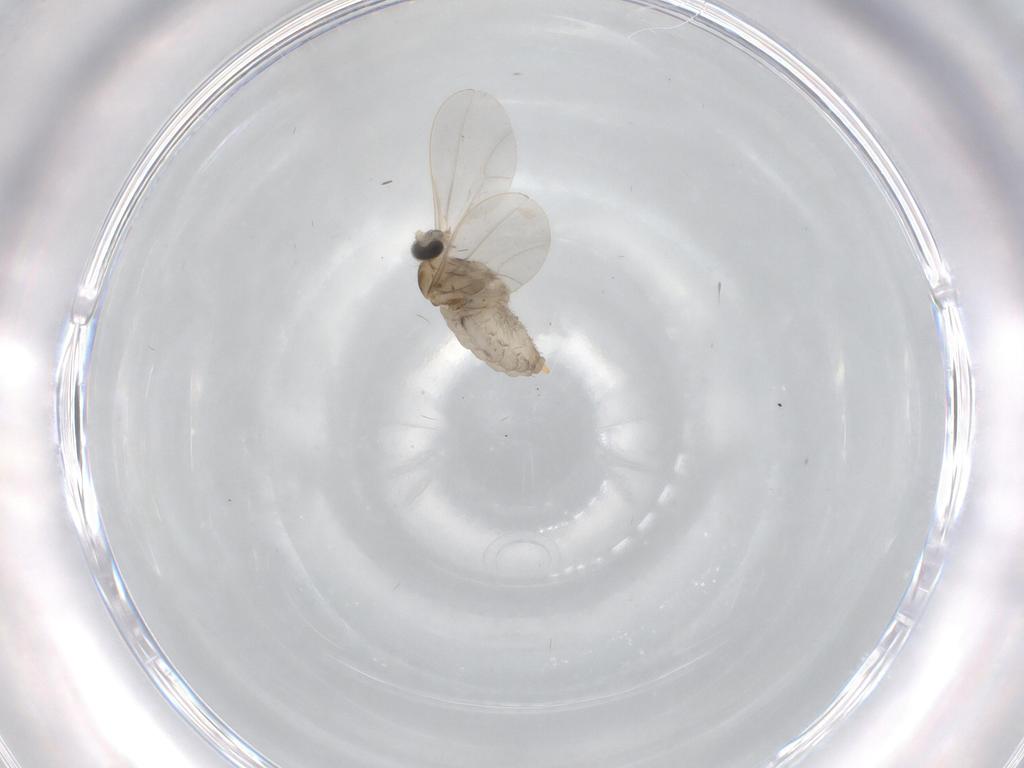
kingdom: Animalia
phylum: Arthropoda
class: Insecta
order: Diptera
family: Cecidomyiidae
